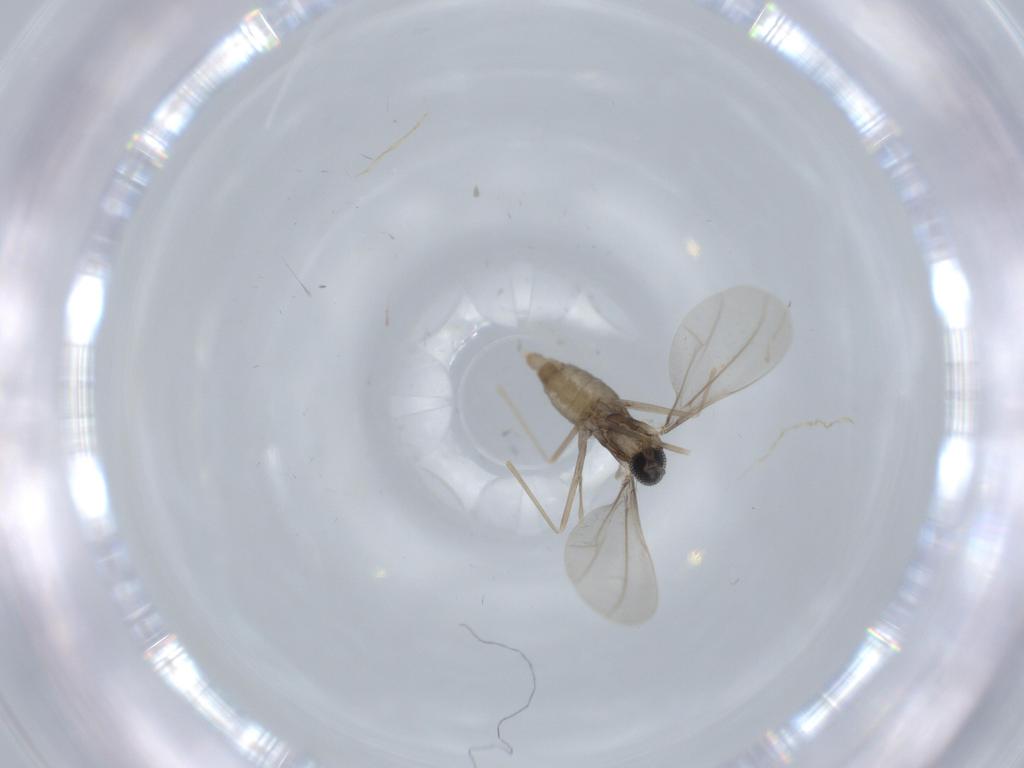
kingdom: Animalia
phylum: Arthropoda
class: Insecta
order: Diptera
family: Cecidomyiidae
